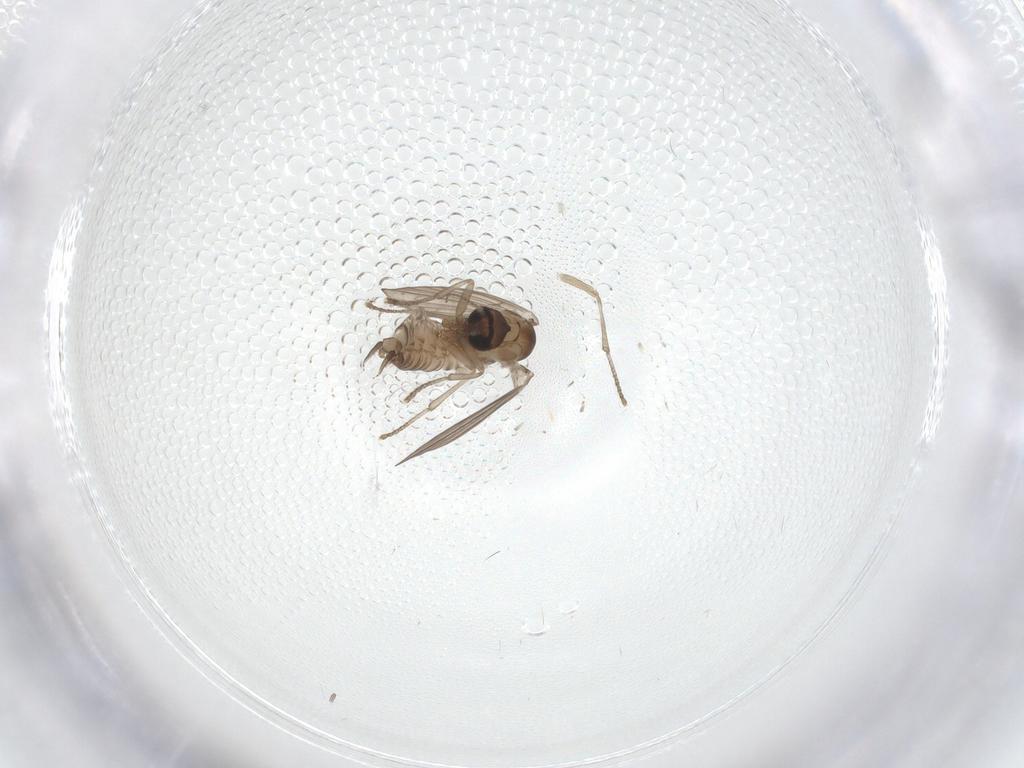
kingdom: Animalia
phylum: Arthropoda
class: Insecta
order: Diptera
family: Psychodidae
